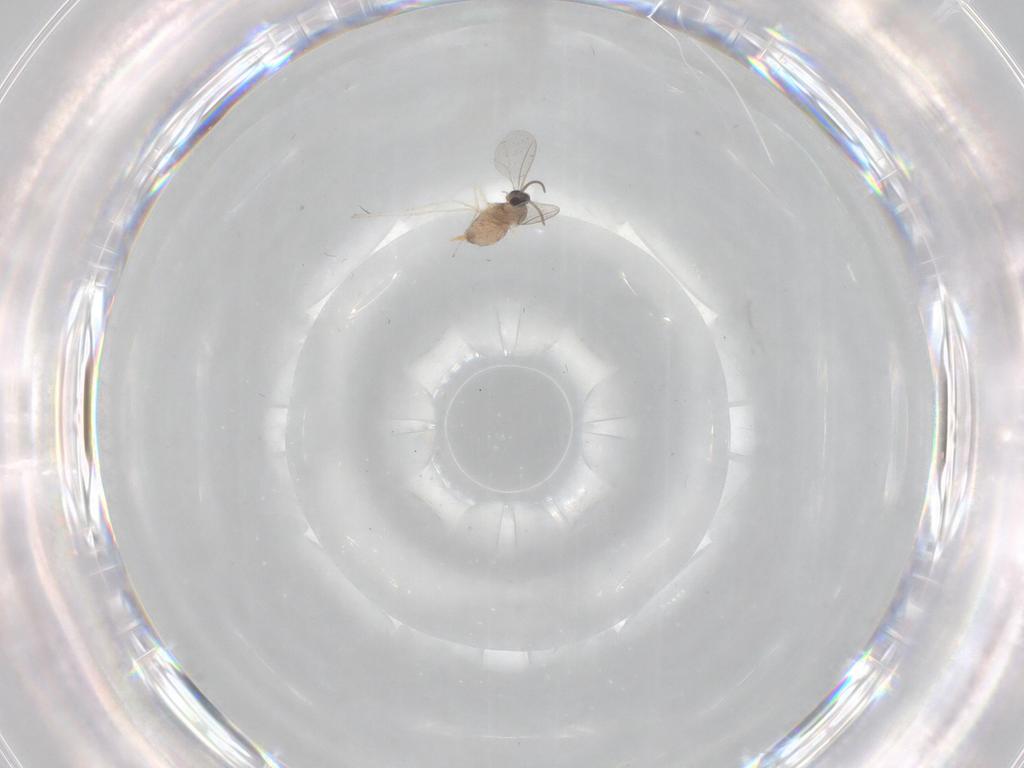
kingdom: Animalia
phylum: Arthropoda
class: Insecta
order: Diptera
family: Ceratopogonidae
